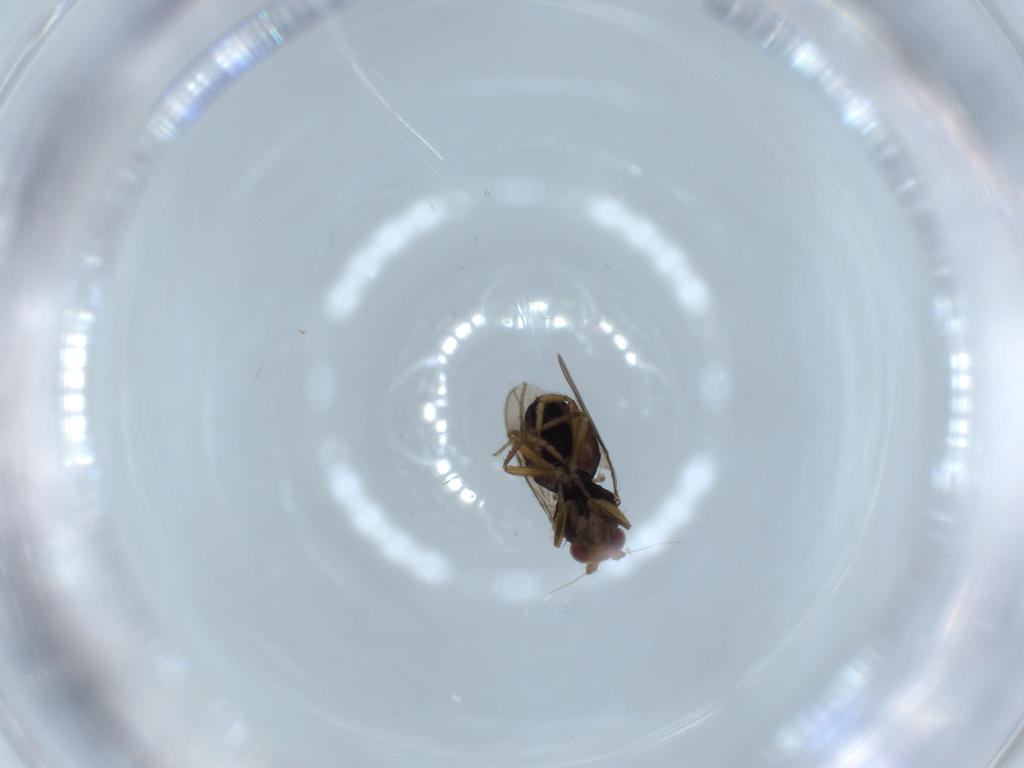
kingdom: Animalia
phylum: Arthropoda
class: Insecta
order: Diptera
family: Sphaeroceridae
